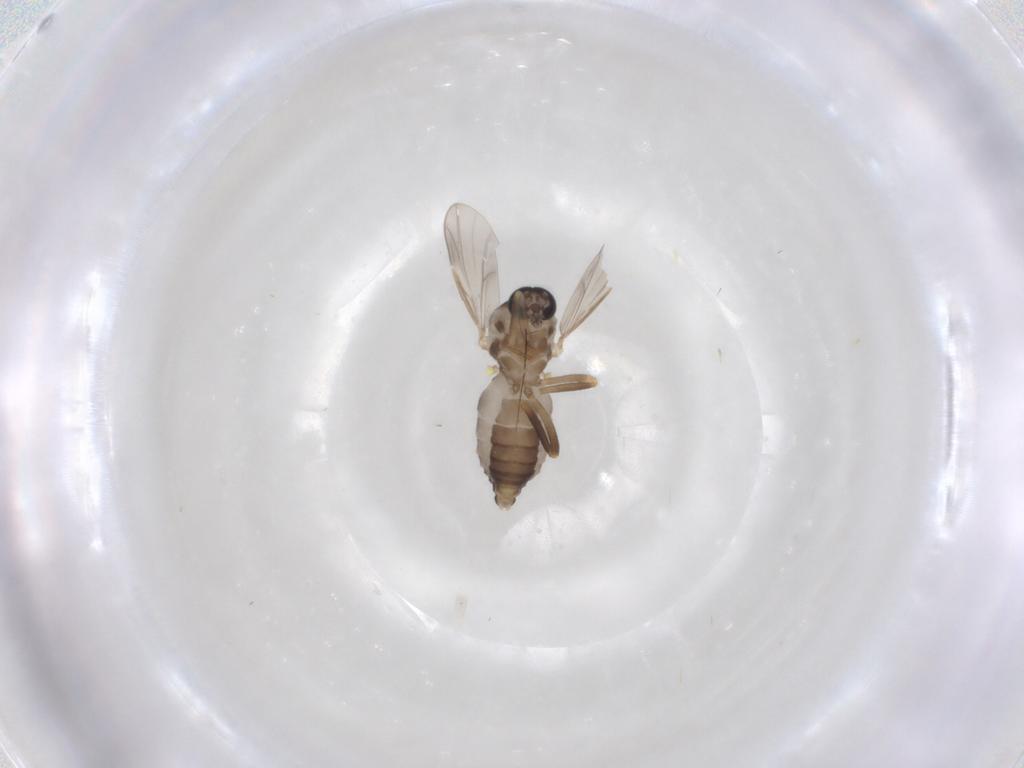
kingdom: Animalia
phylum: Arthropoda
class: Insecta
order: Diptera
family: Ceratopogonidae
